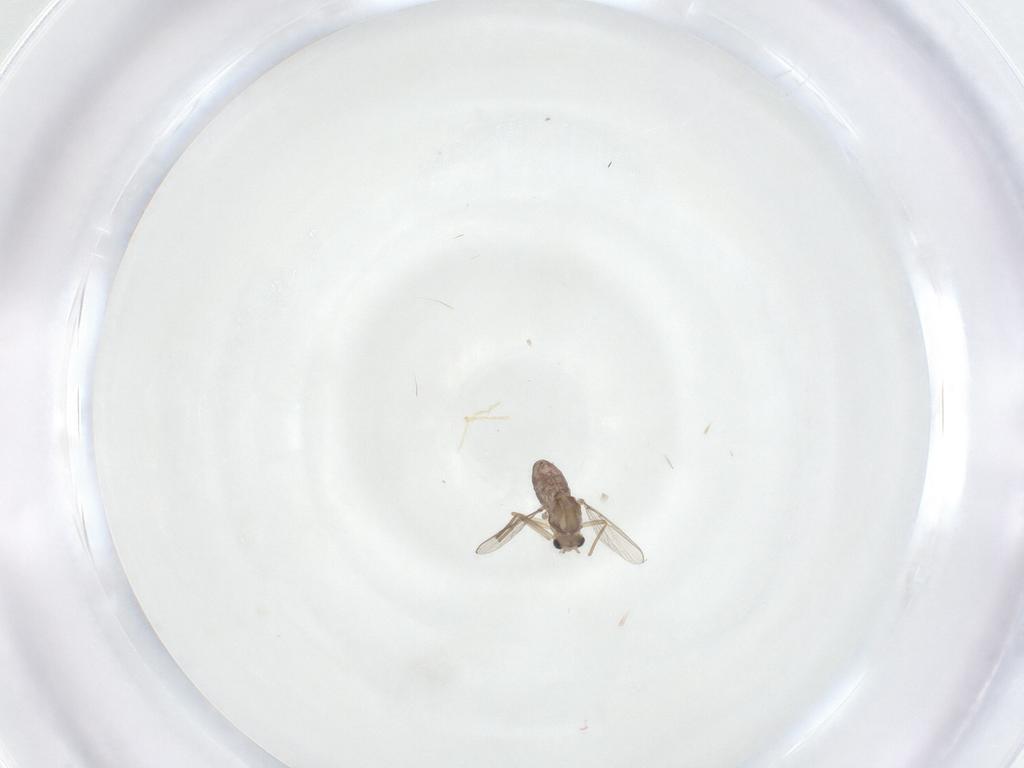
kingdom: Animalia
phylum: Arthropoda
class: Insecta
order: Diptera
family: Chironomidae
